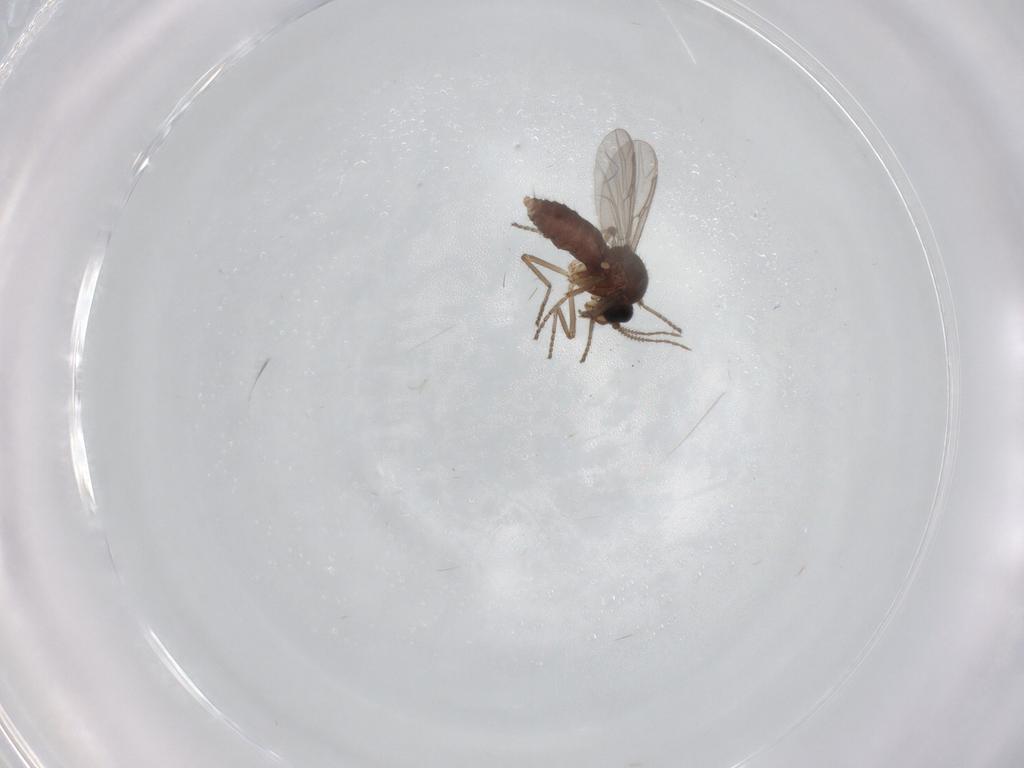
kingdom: Animalia
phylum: Arthropoda
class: Insecta
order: Diptera
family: Ceratopogonidae
